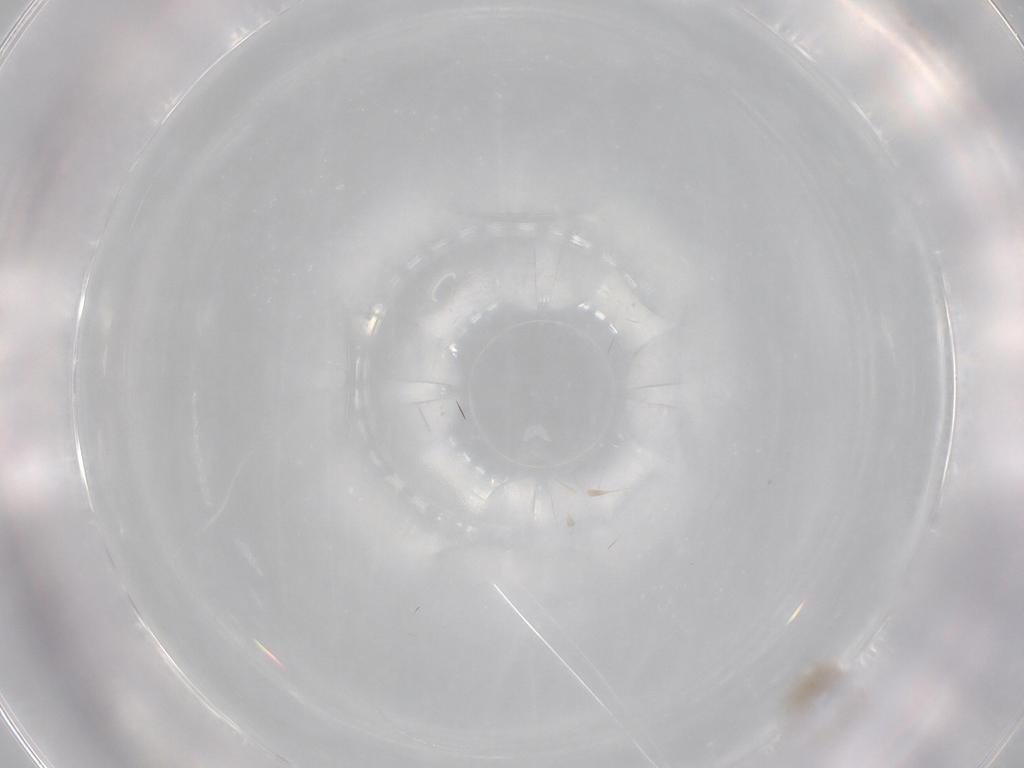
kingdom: Animalia
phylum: Arthropoda
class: Insecta
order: Diptera
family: Cecidomyiidae
